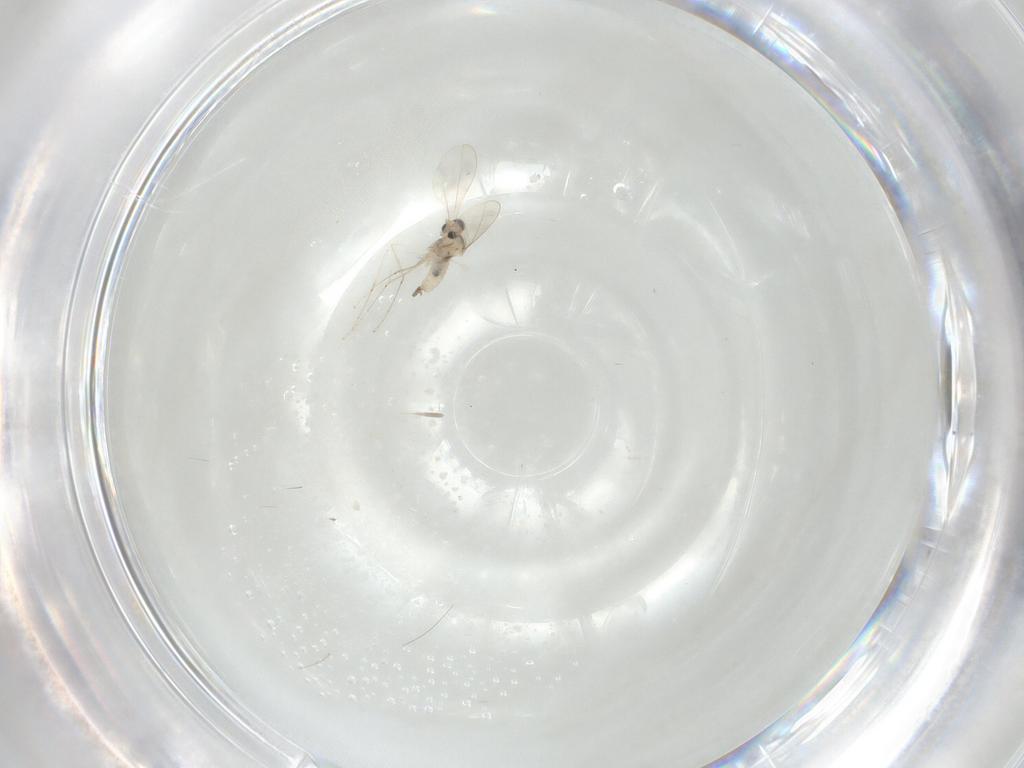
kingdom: Animalia
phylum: Arthropoda
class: Insecta
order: Diptera
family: Cecidomyiidae
